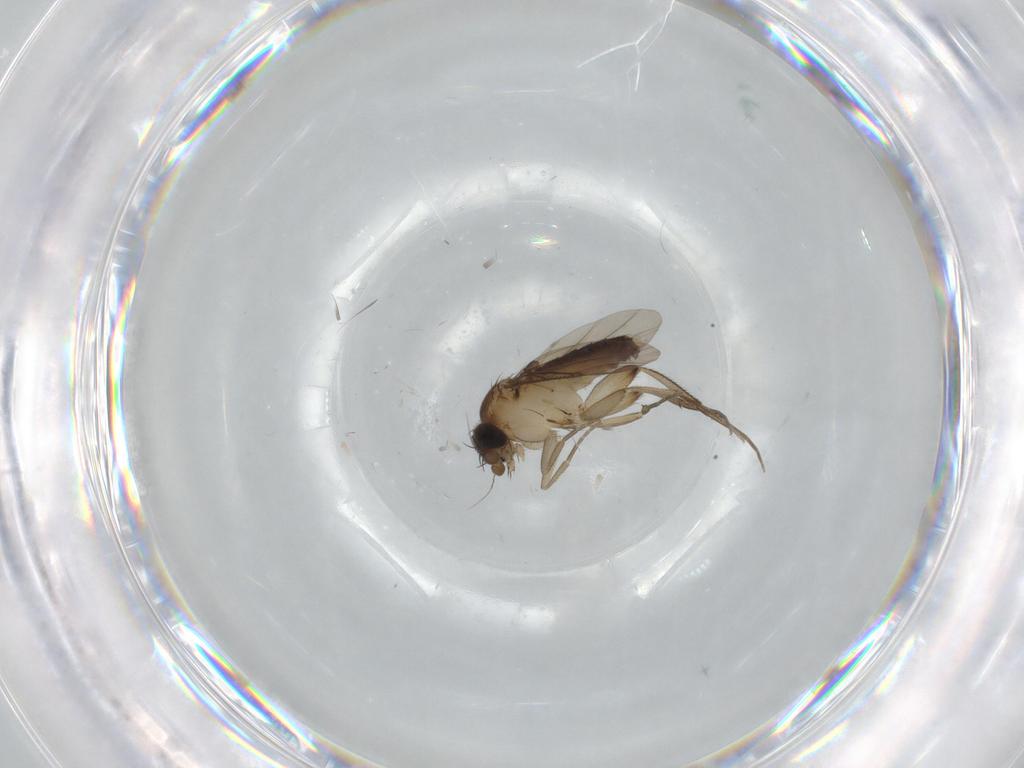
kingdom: Animalia
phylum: Arthropoda
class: Insecta
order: Diptera
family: Phoridae
